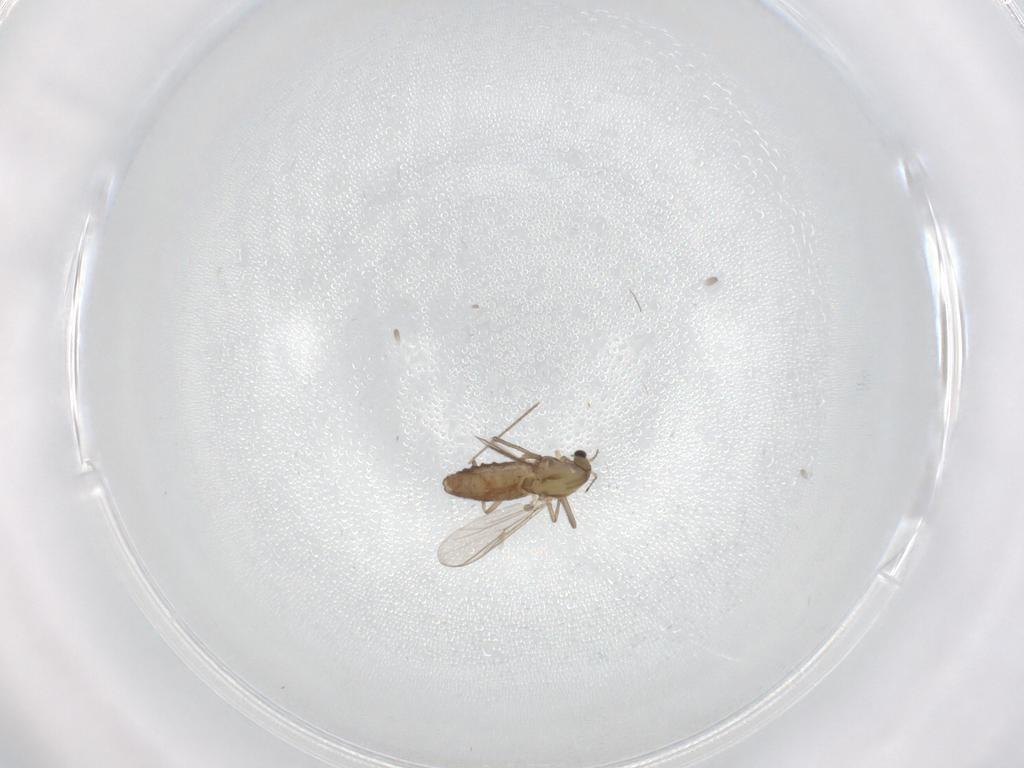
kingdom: Animalia
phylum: Arthropoda
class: Insecta
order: Diptera
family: Chironomidae
